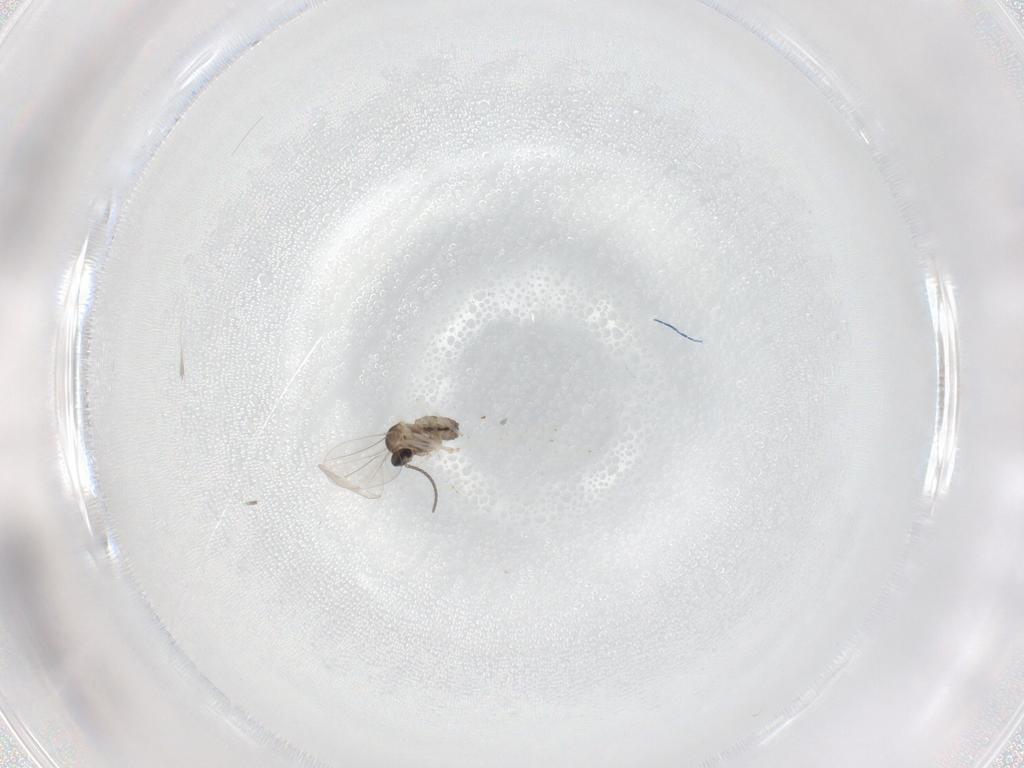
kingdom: Animalia
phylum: Arthropoda
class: Insecta
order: Diptera
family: Cecidomyiidae
